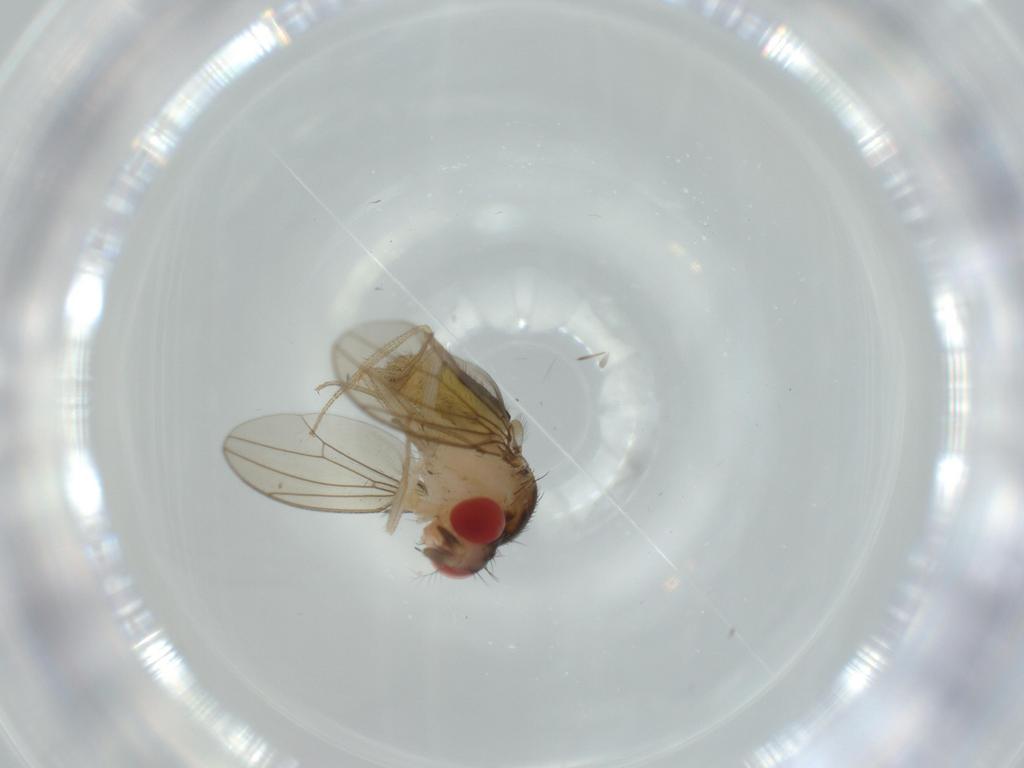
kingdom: Animalia
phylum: Arthropoda
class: Insecta
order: Diptera
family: Drosophilidae
